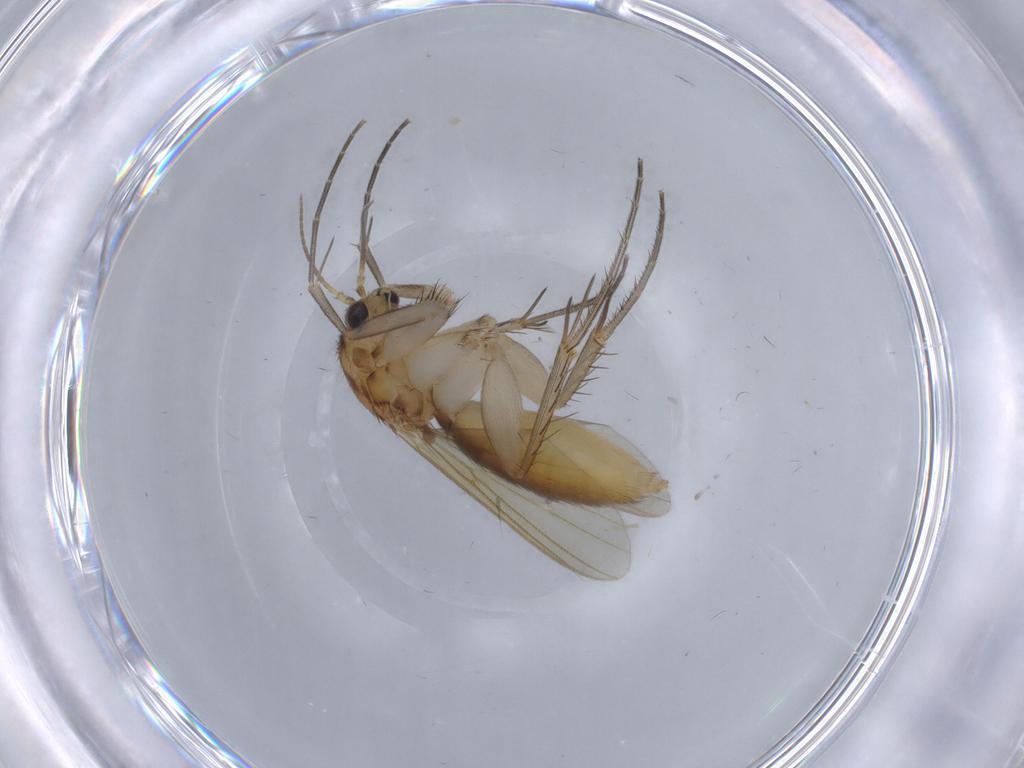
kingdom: Animalia
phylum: Arthropoda
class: Insecta
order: Diptera
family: Mycetophilidae
